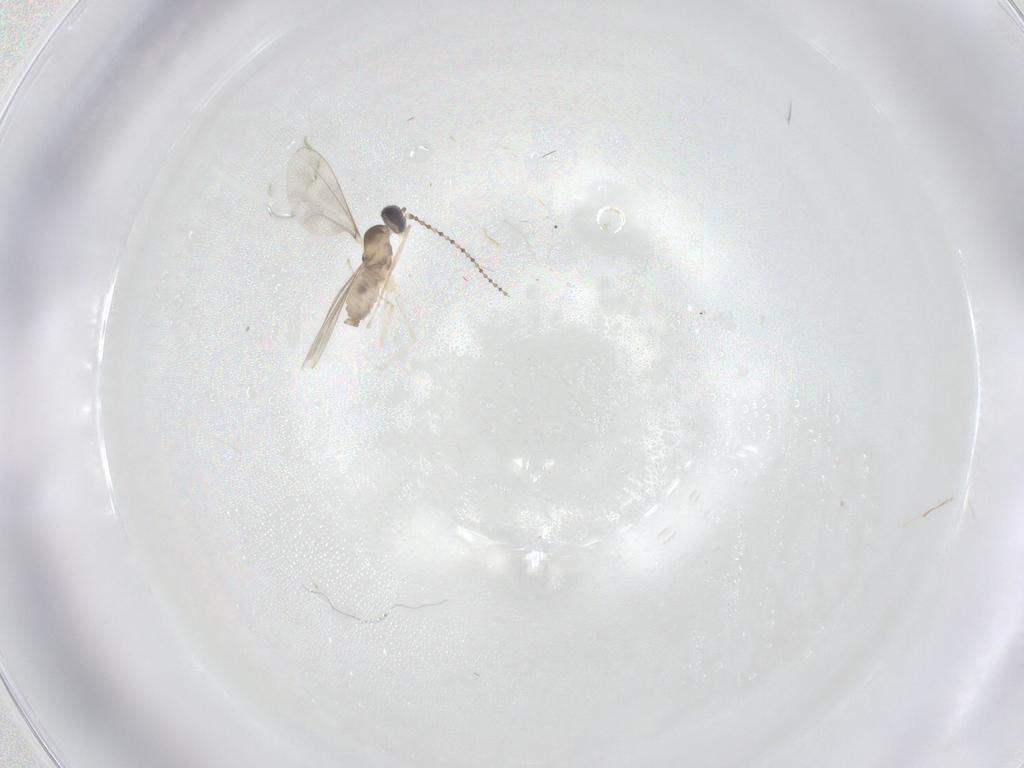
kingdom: Animalia
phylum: Arthropoda
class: Insecta
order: Diptera
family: Cecidomyiidae
